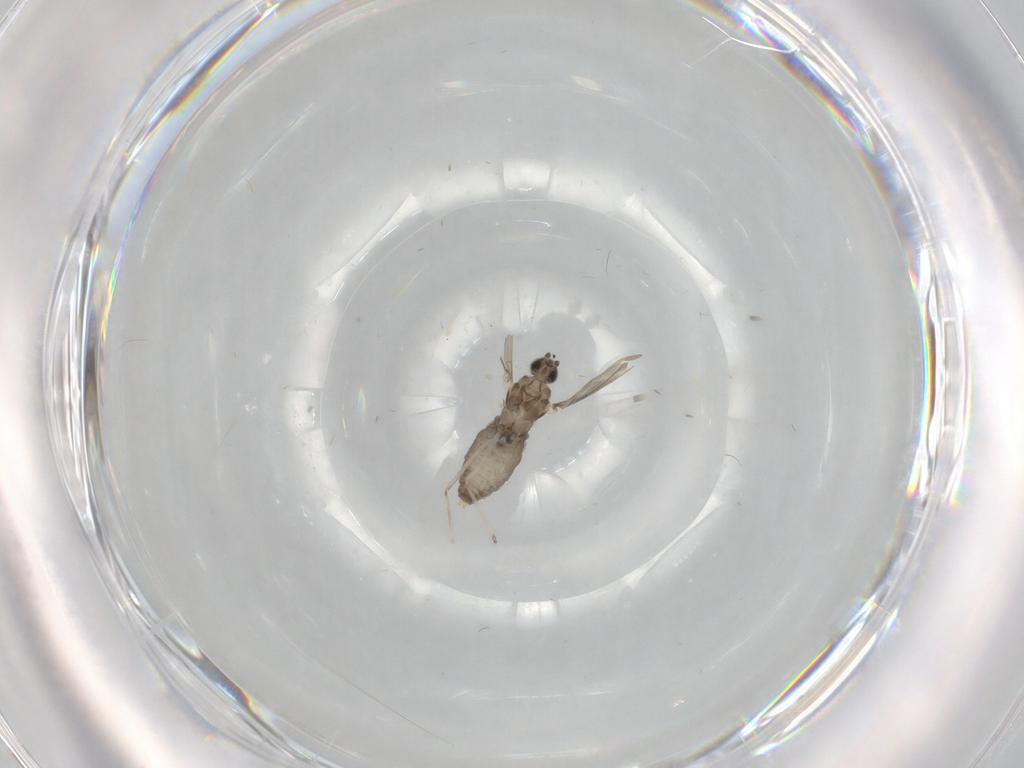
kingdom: Animalia
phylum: Arthropoda
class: Insecta
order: Diptera
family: Cecidomyiidae
